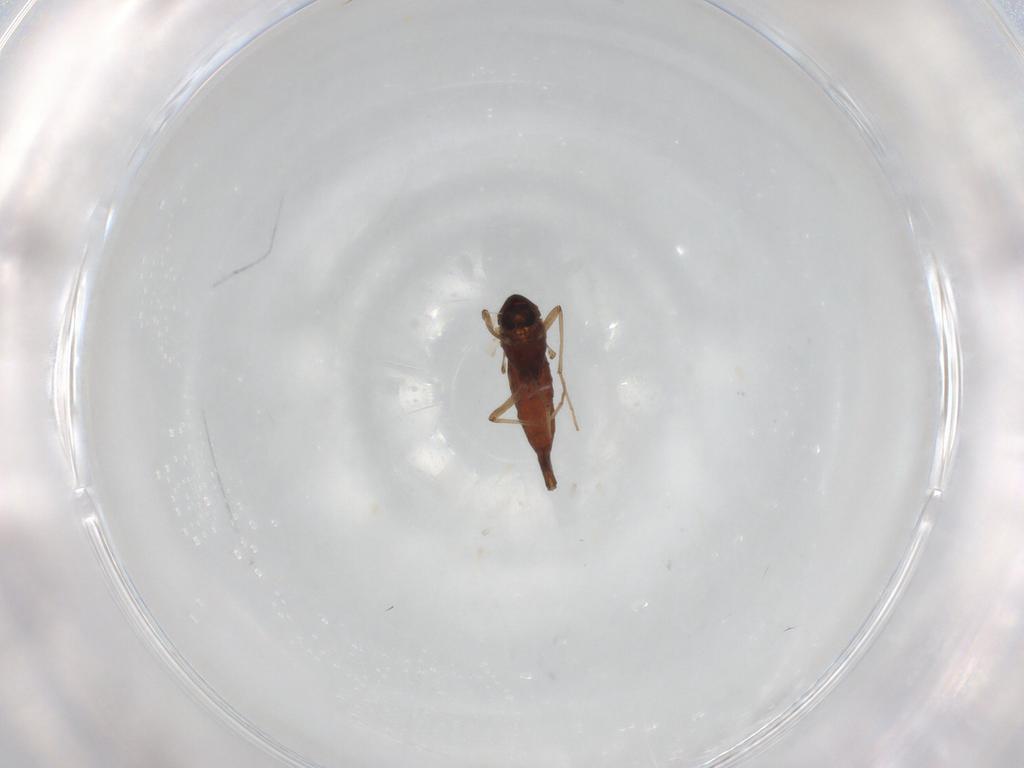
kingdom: Animalia
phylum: Arthropoda
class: Insecta
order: Diptera
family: Chironomidae
